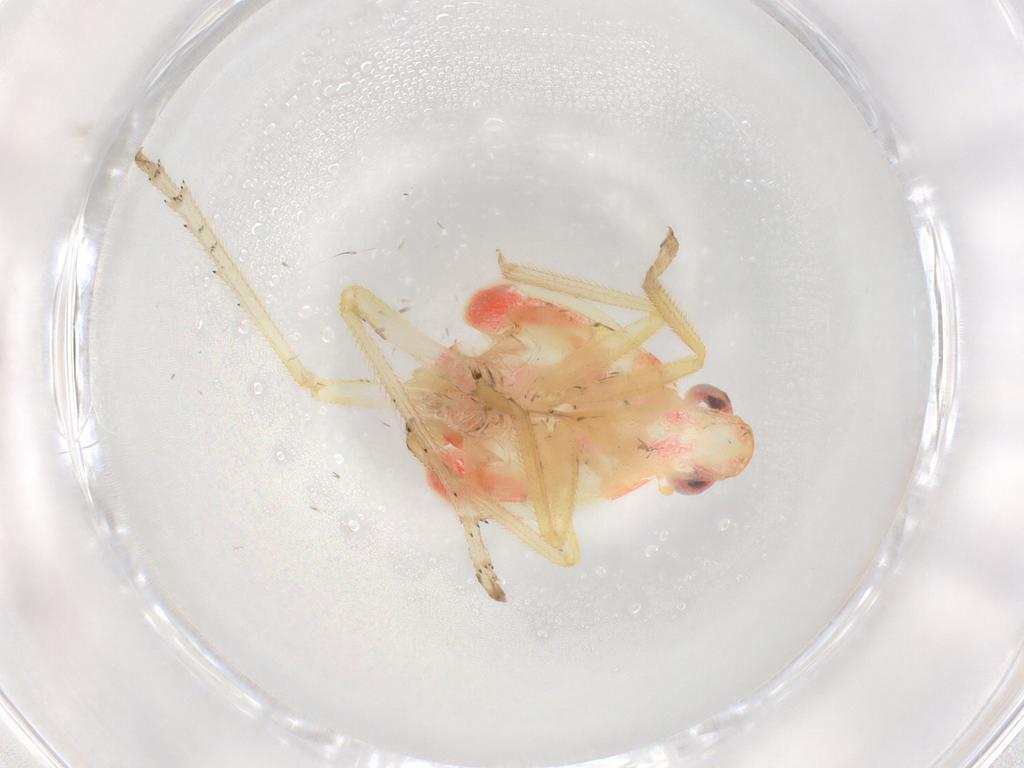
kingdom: Animalia
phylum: Arthropoda
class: Insecta
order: Hemiptera
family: Tropiduchidae
